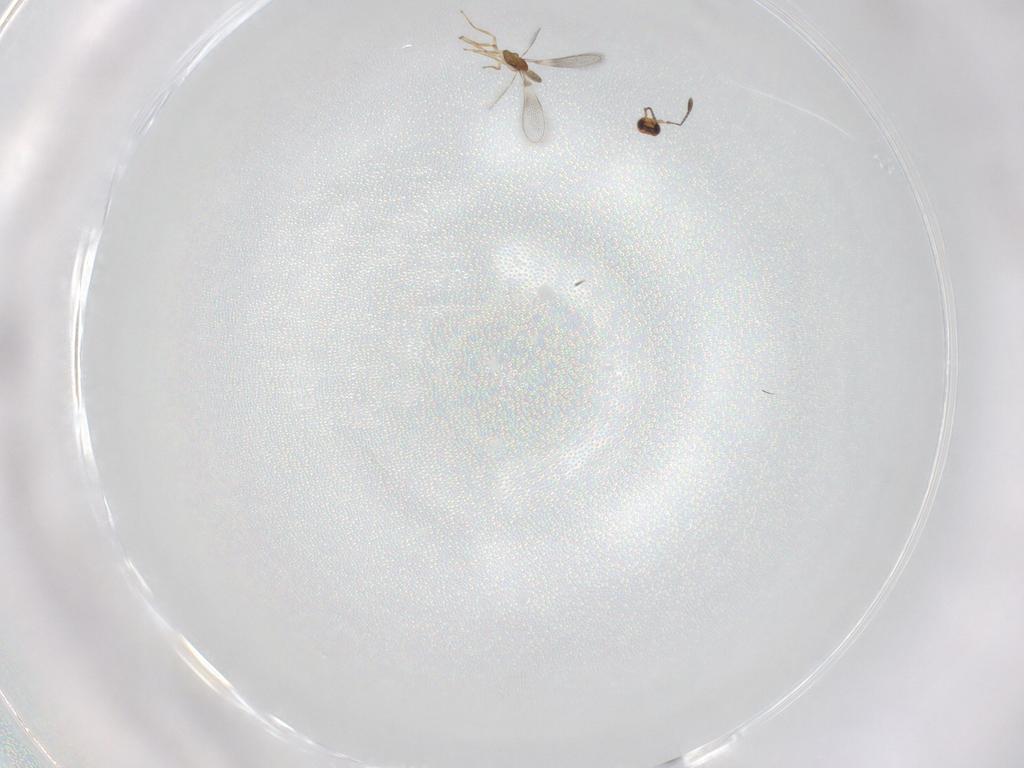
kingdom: Animalia
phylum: Arthropoda
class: Insecta
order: Hymenoptera
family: Mymaridae
